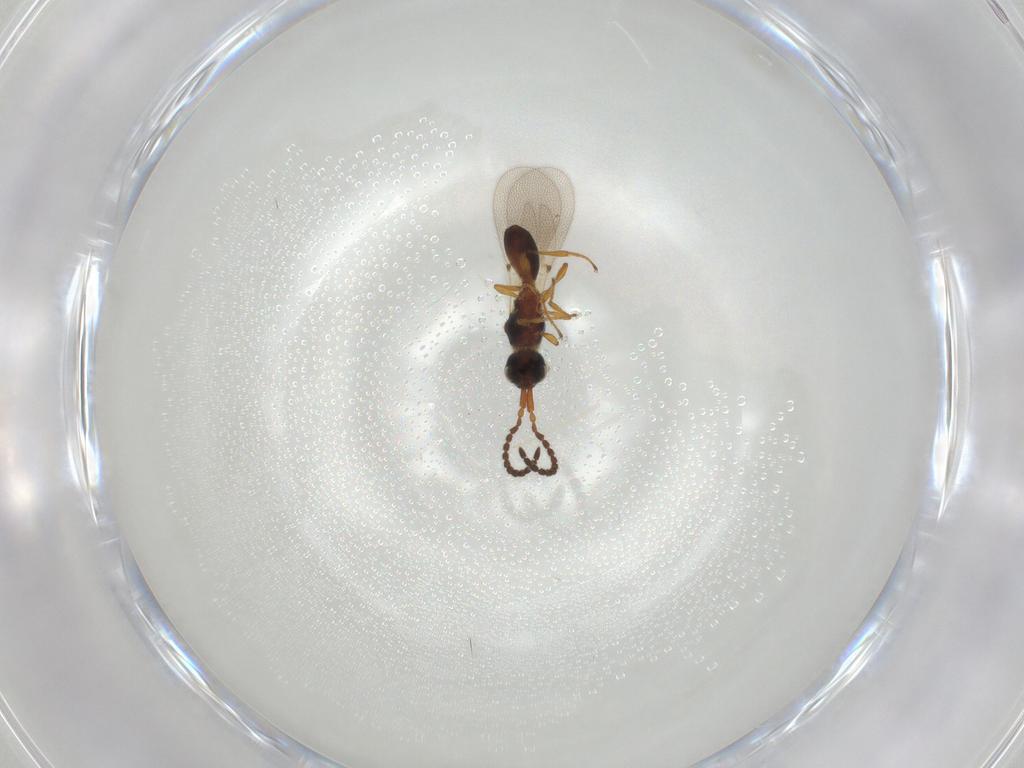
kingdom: Animalia
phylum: Arthropoda
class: Insecta
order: Hymenoptera
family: Diapriidae
